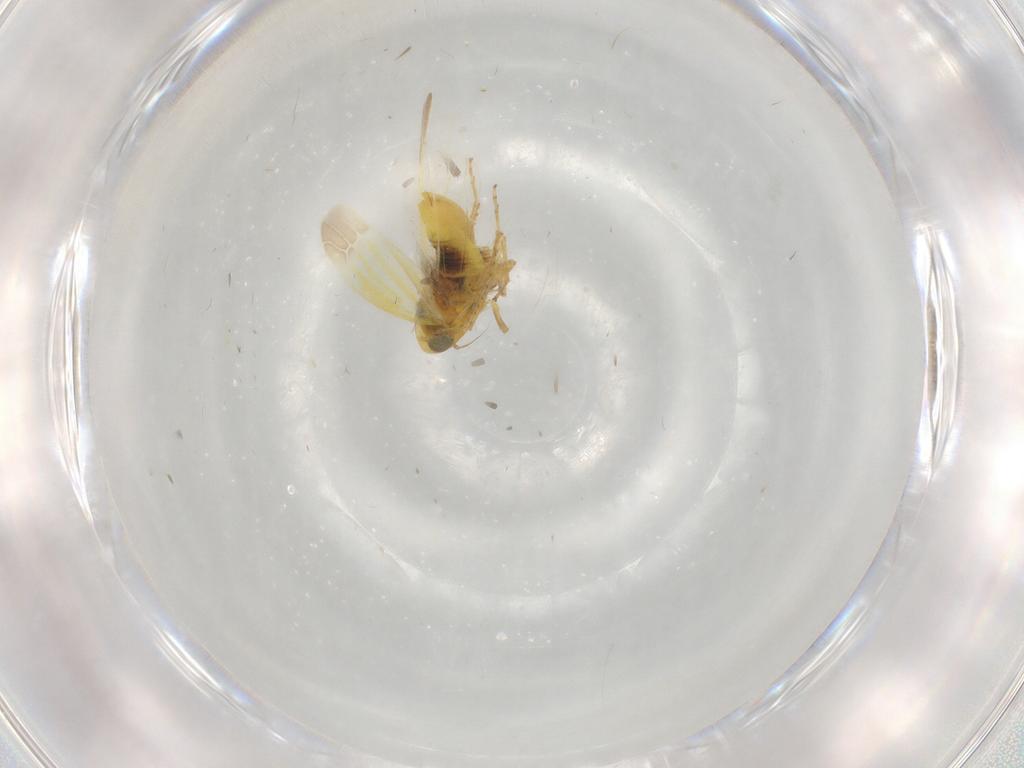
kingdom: Animalia
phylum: Arthropoda
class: Insecta
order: Hemiptera
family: Cicadellidae
